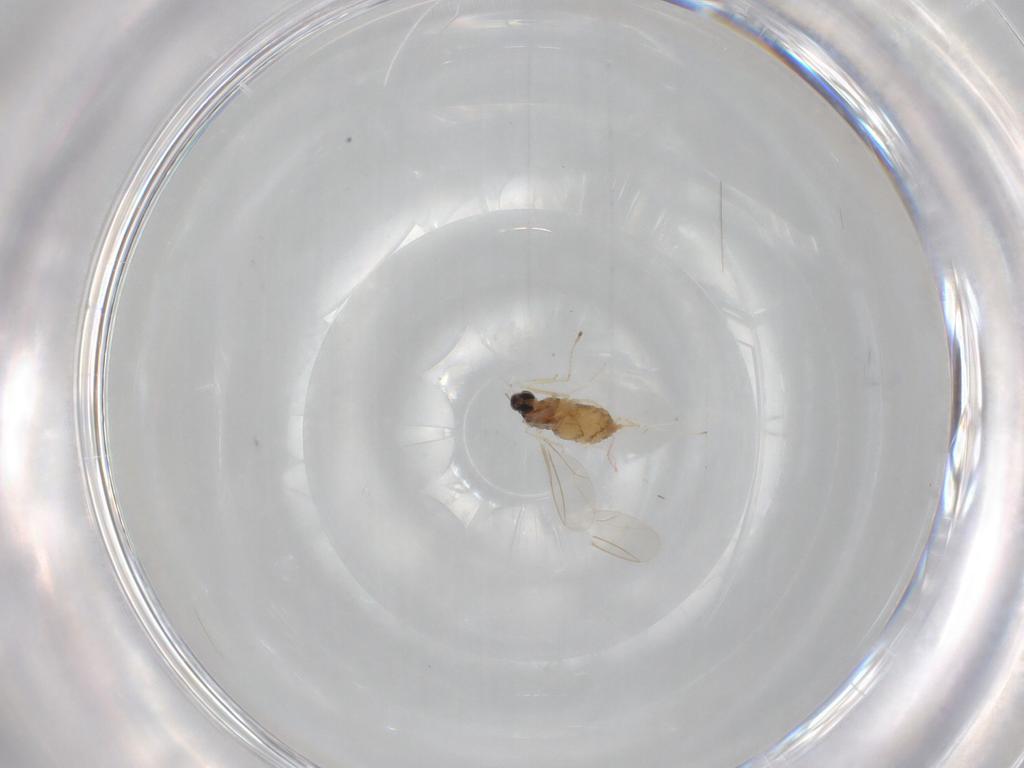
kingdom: Animalia
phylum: Arthropoda
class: Insecta
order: Diptera
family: Cecidomyiidae
